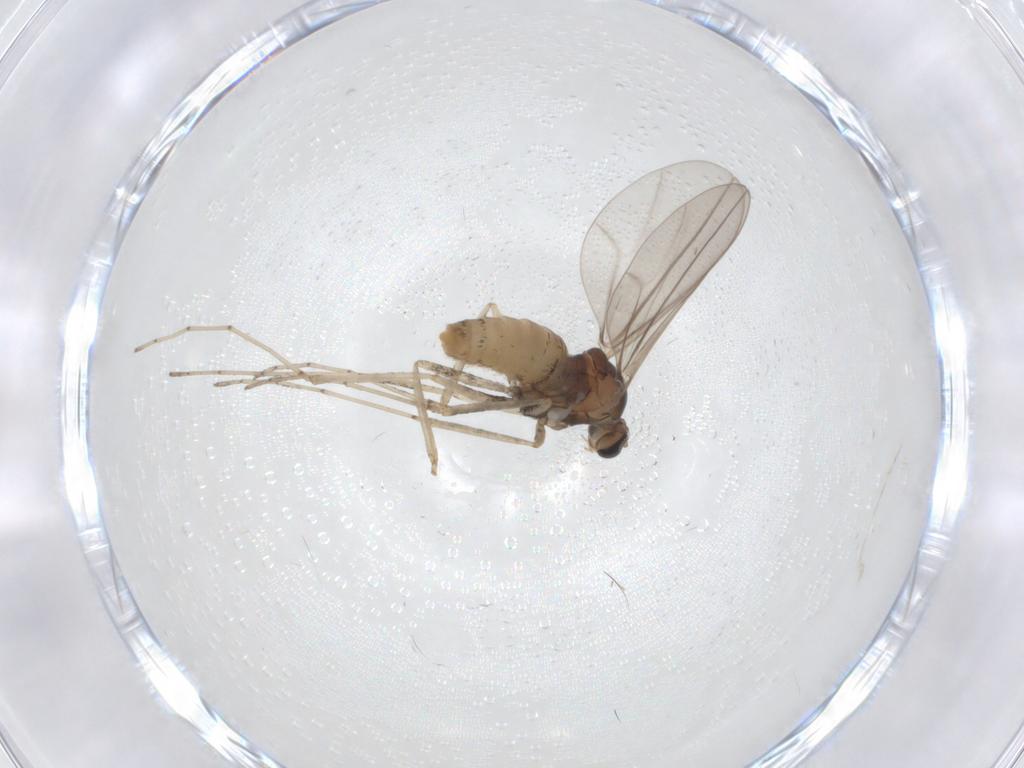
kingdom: Animalia
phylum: Arthropoda
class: Insecta
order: Diptera
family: Cecidomyiidae
